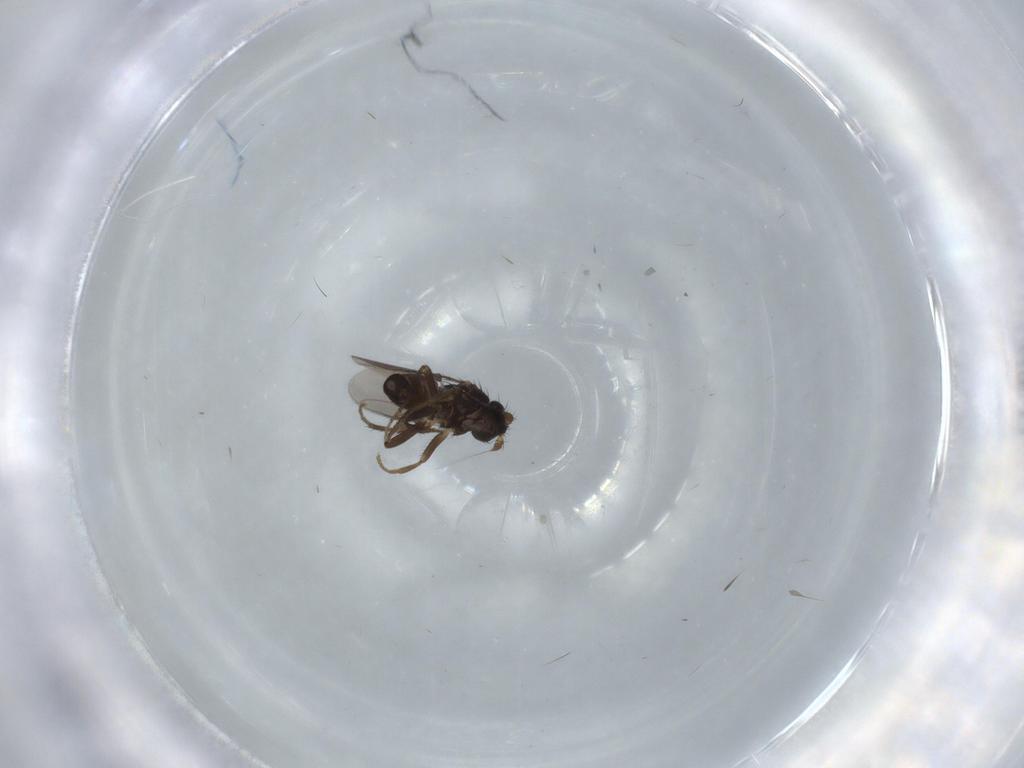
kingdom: Animalia
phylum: Arthropoda
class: Insecta
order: Diptera
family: Sphaeroceridae
